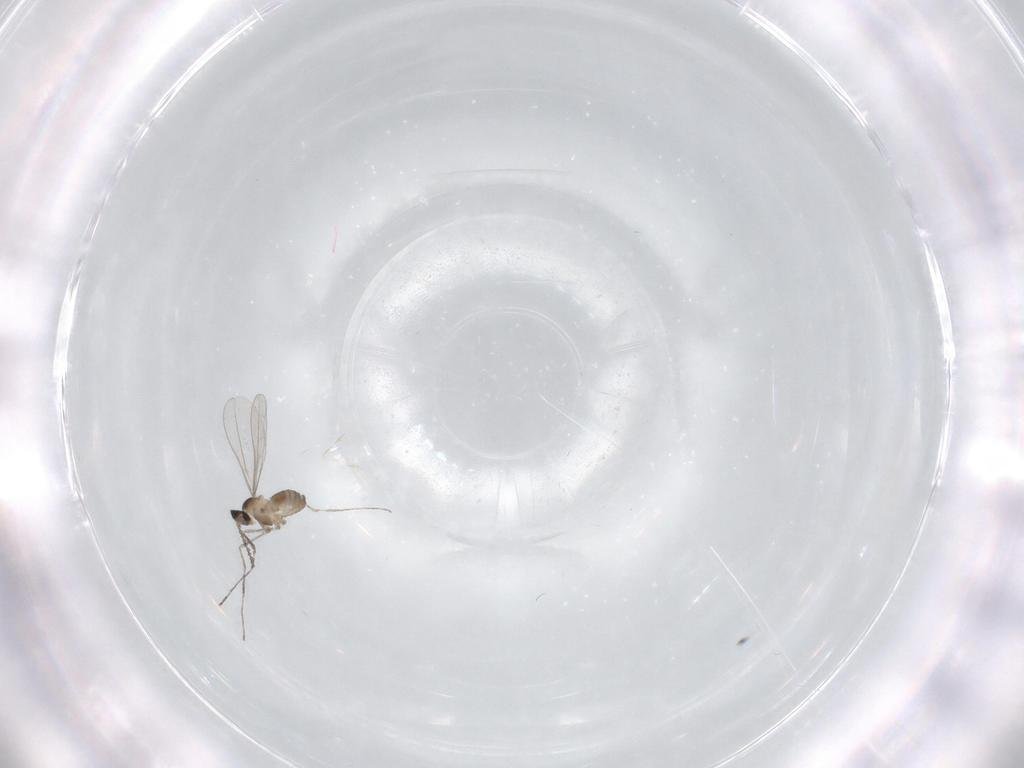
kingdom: Animalia
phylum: Arthropoda
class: Insecta
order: Diptera
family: Cecidomyiidae
